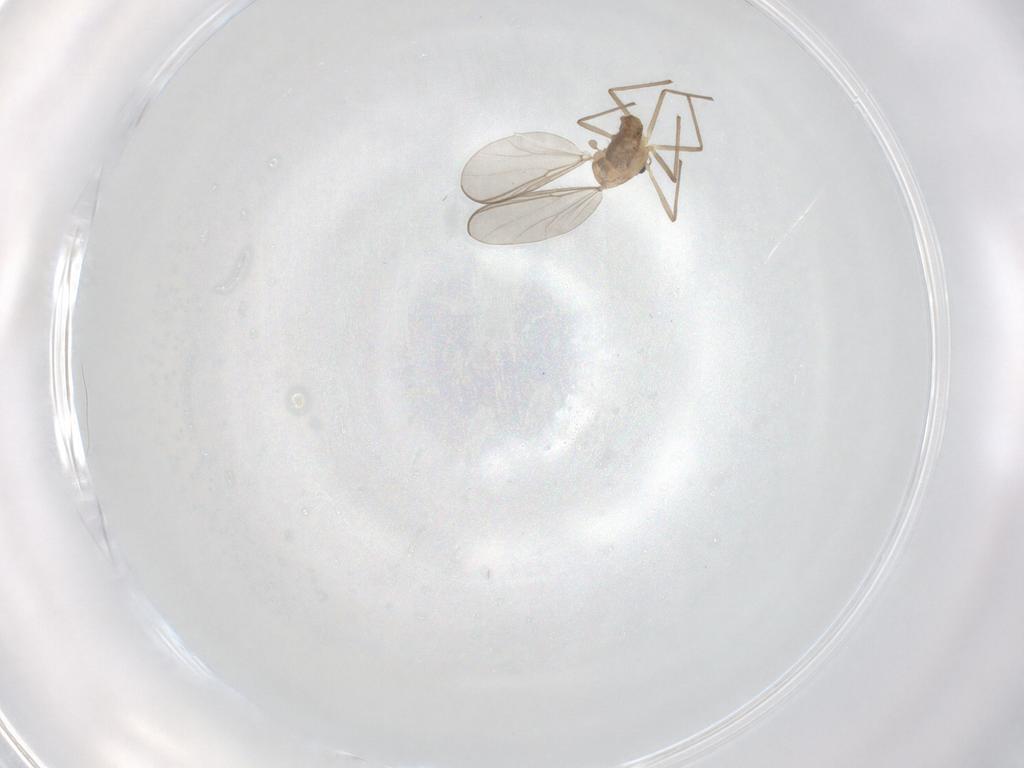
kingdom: Animalia
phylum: Arthropoda
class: Insecta
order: Diptera
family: Chironomidae
